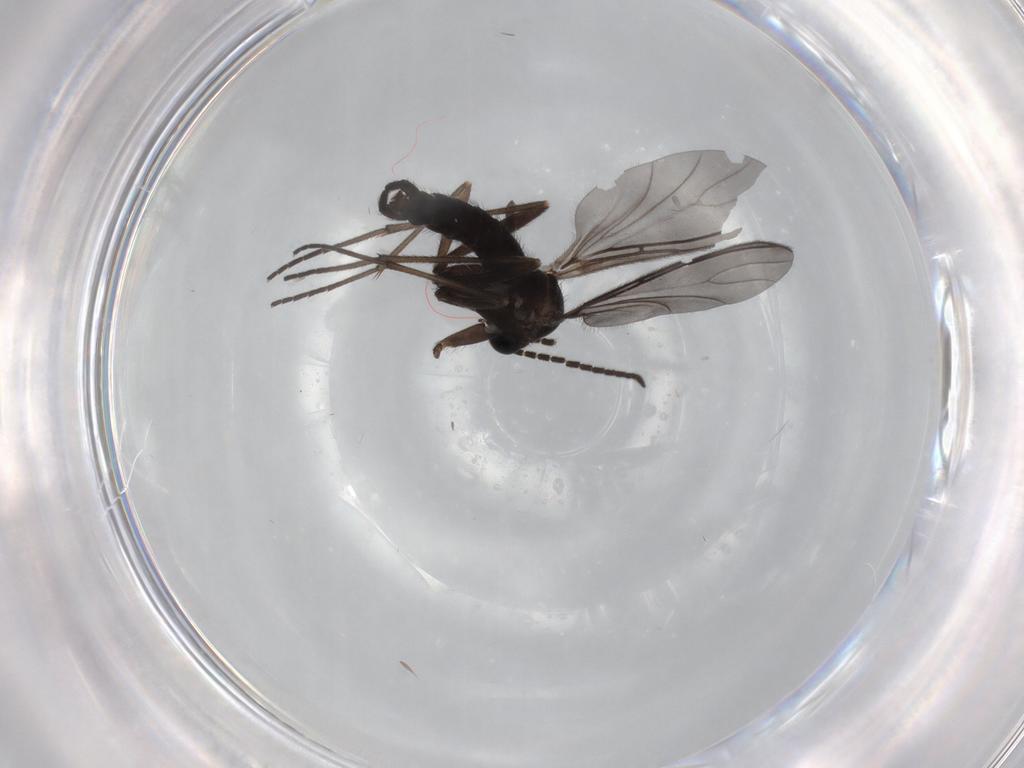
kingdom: Animalia
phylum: Arthropoda
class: Insecta
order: Diptera
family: Sciaridae
